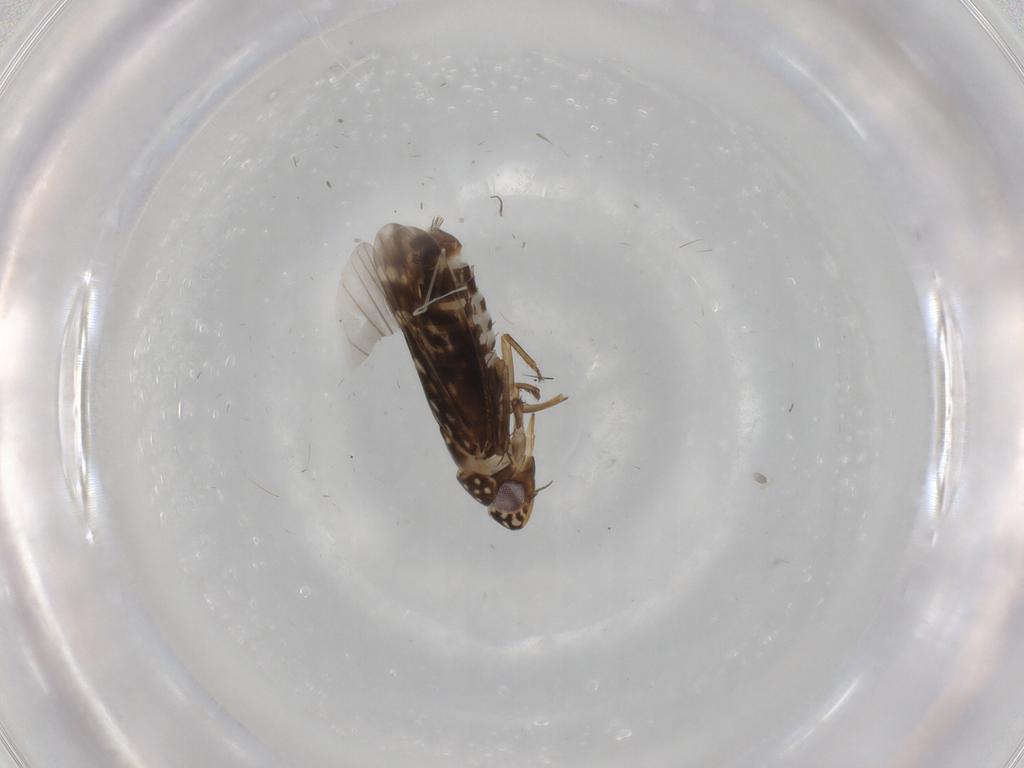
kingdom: Animalia
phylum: Arthropoda
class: Insecta
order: Hemiptera
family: Cicadellidae
